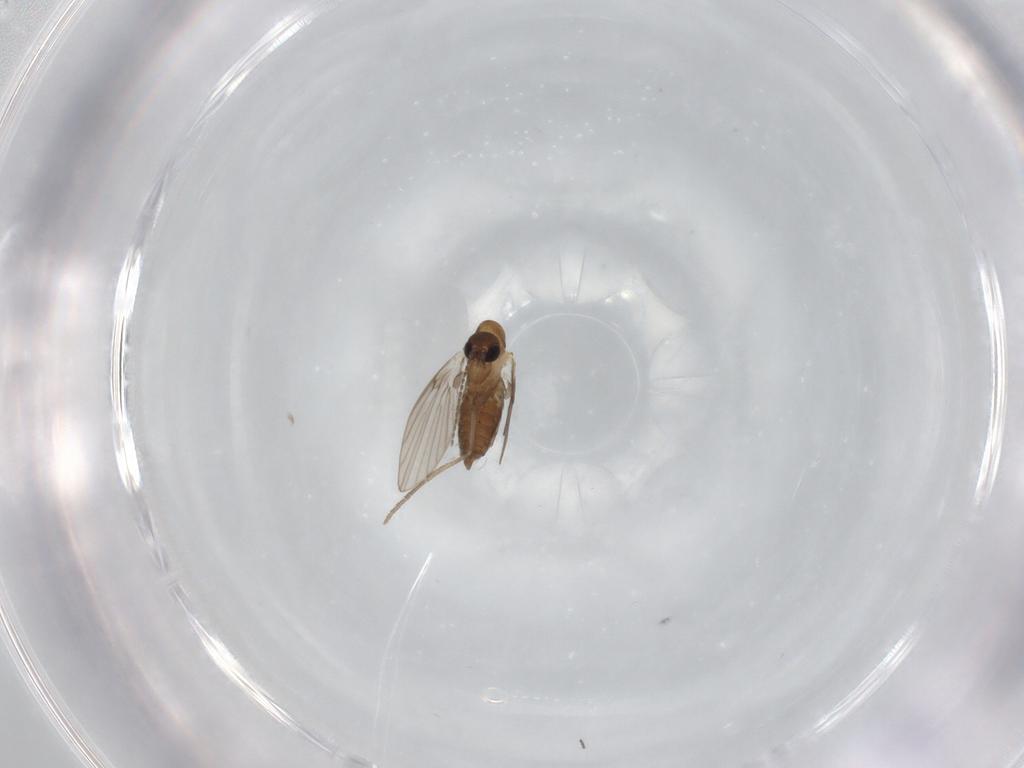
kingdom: Animalia
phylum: Arthropoda
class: Insecta
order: Diptera
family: Psychodidae
